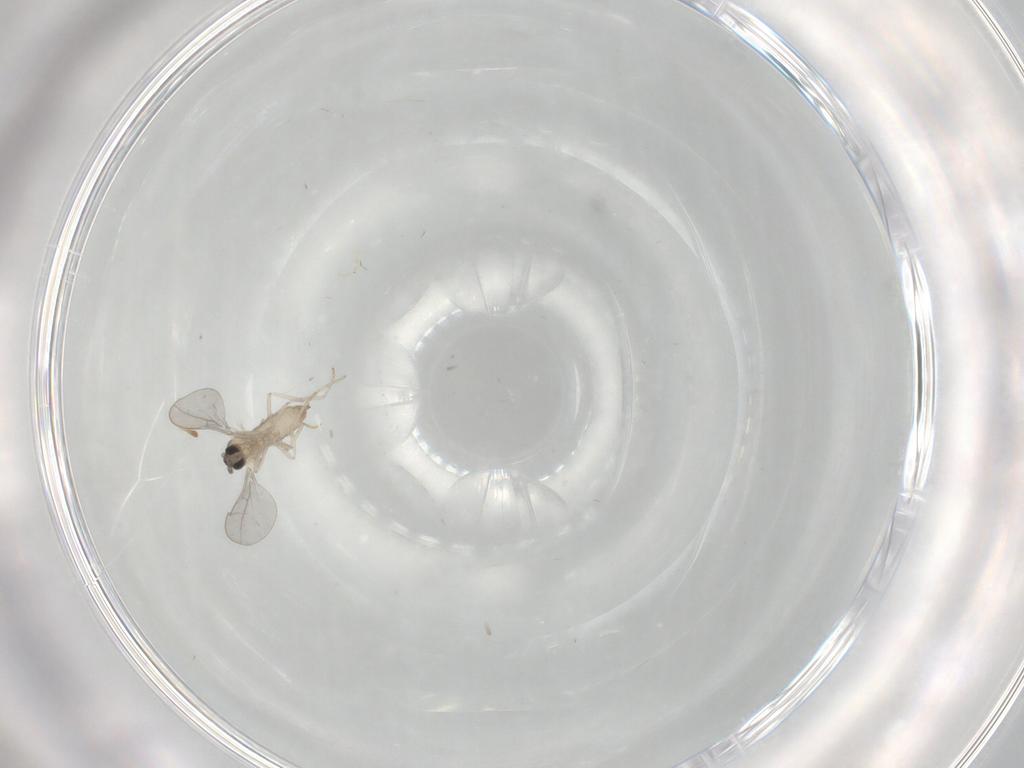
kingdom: Animalia
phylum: Arthropoda
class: Insecta
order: Diptera
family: Cecidomyiidae
